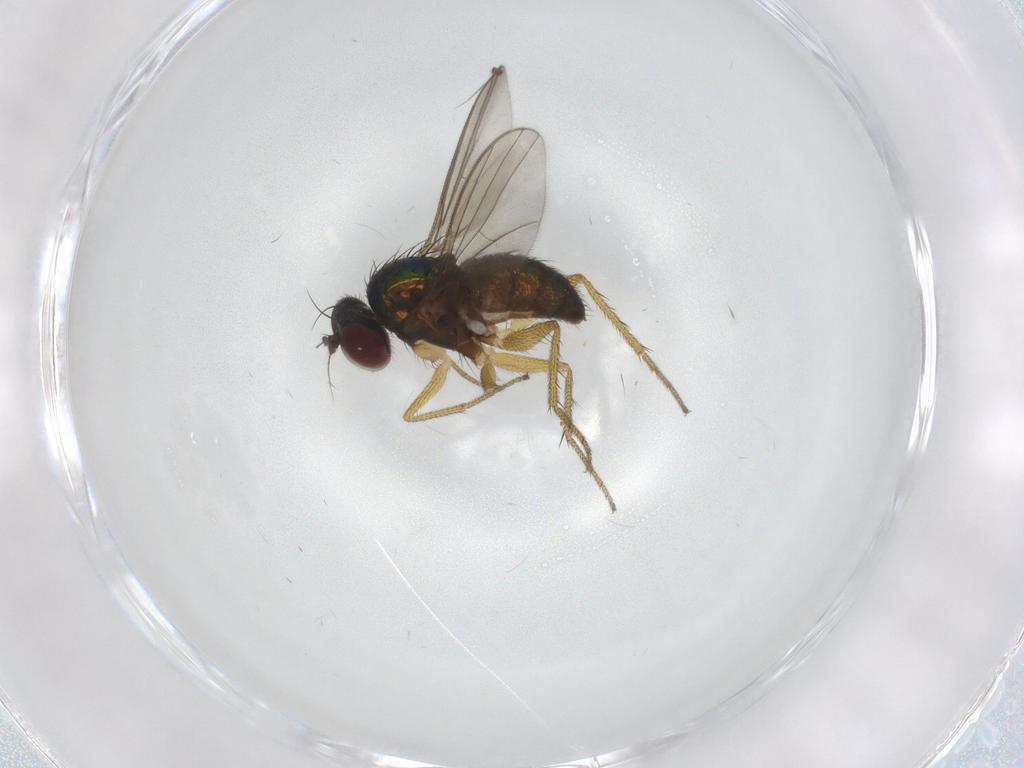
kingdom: Animalia
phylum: Arthropoda
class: Insecta
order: Diptera
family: Dolichopodidae
